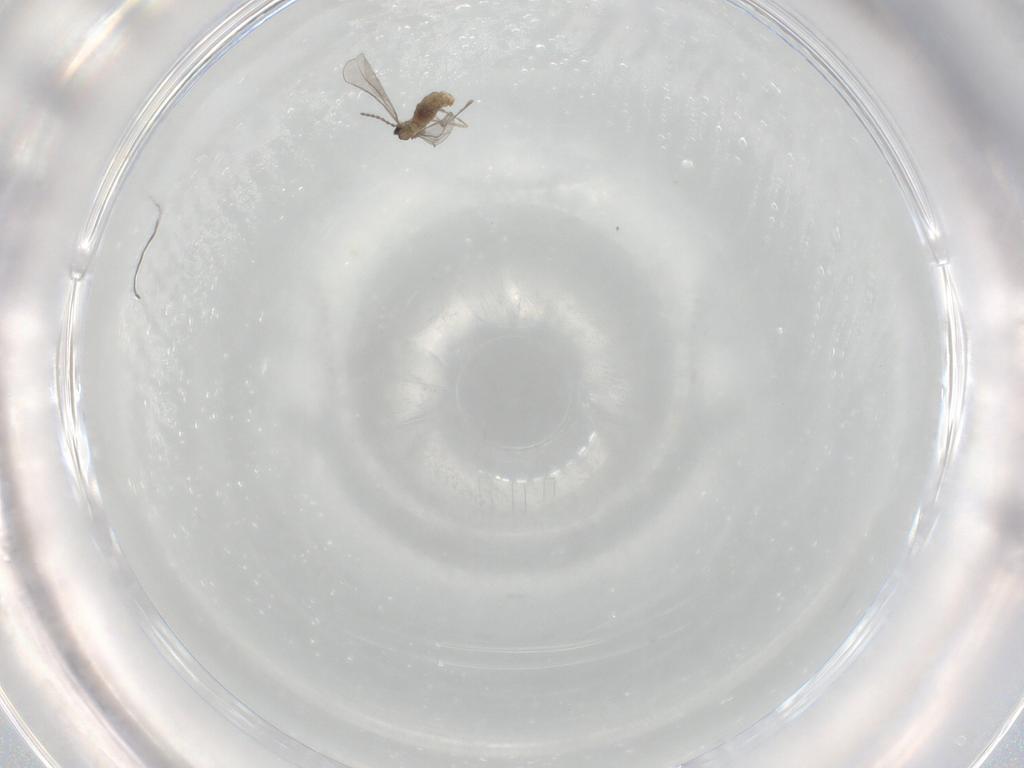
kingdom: Animalia
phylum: Arthropoda
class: Insecta
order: Diptera
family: Cecidomyiidae
